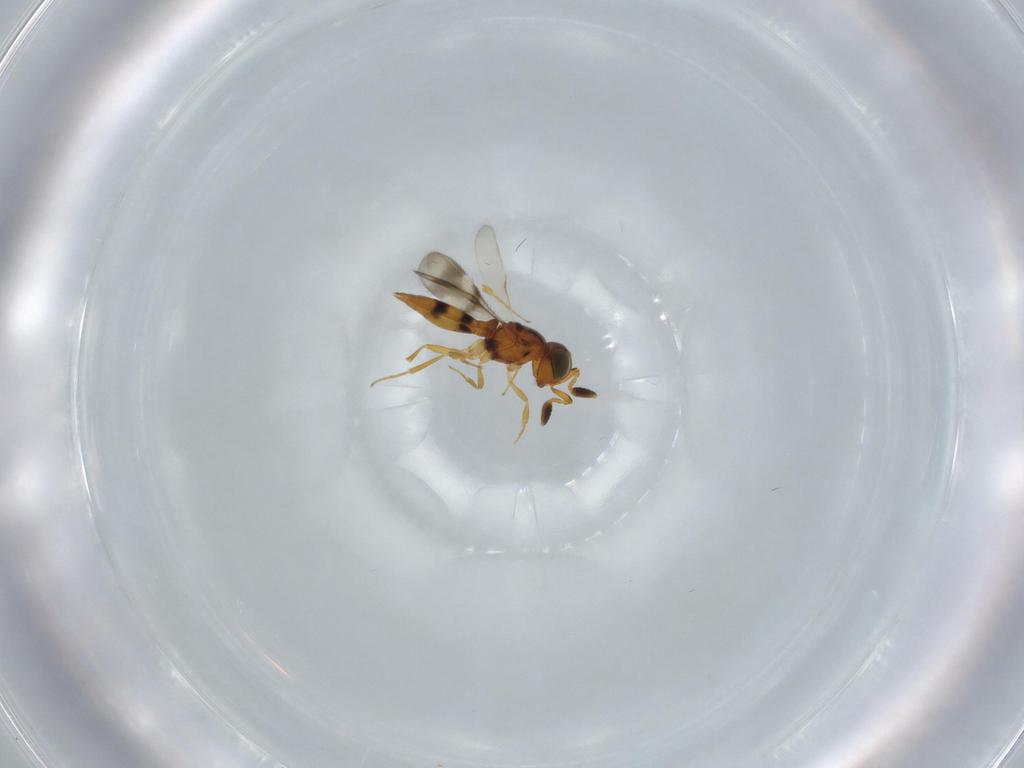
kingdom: Animalia
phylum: Arthropoda
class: Insecta
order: Hymenoptera
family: Scelionidae
